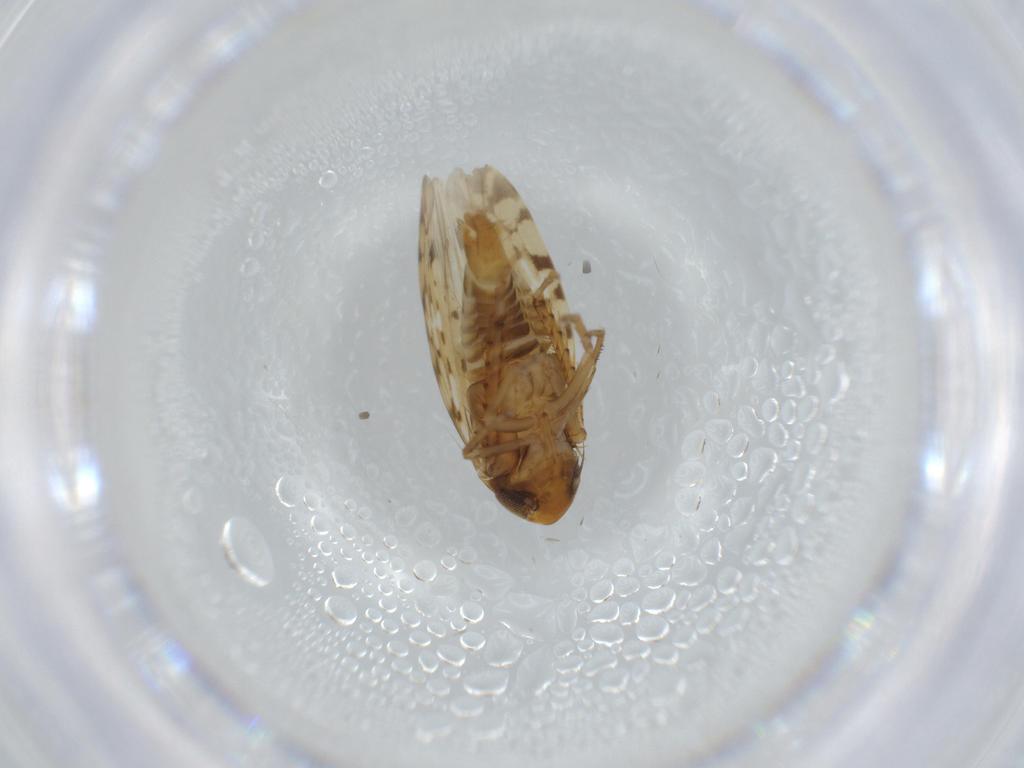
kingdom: Animalia
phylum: Arthropoda
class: Insecta
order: Hemiptera
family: Cicadellidae
